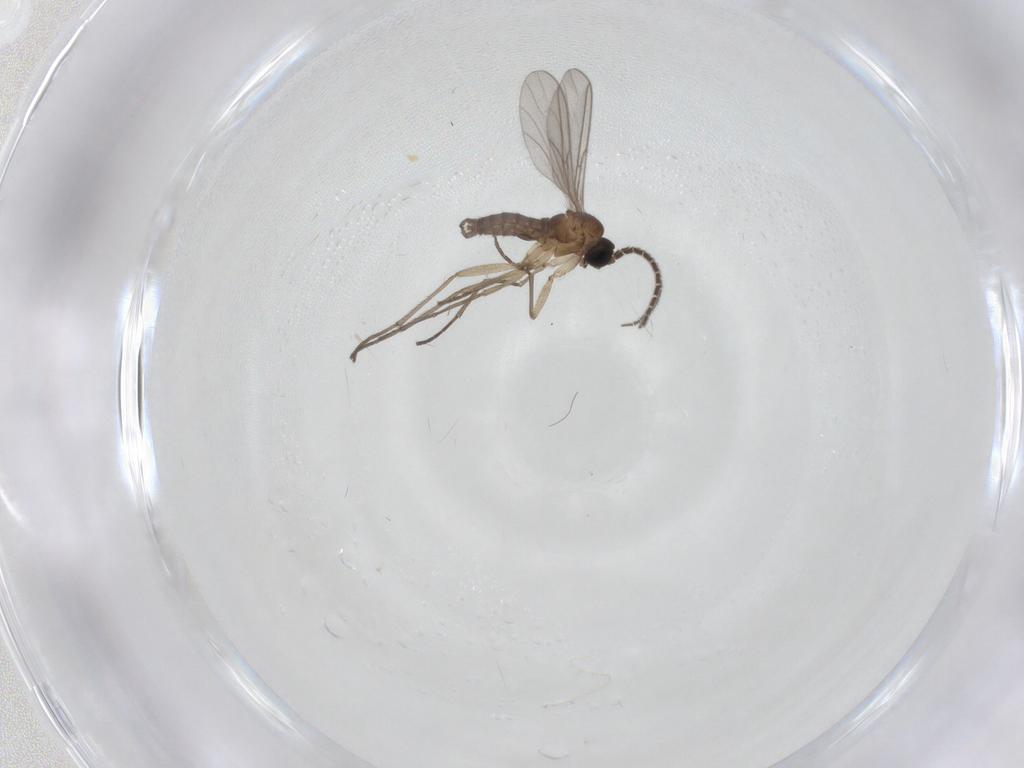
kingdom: Animalia
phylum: Arthropoda
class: Insecta
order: Diptera
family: Sciaridae
